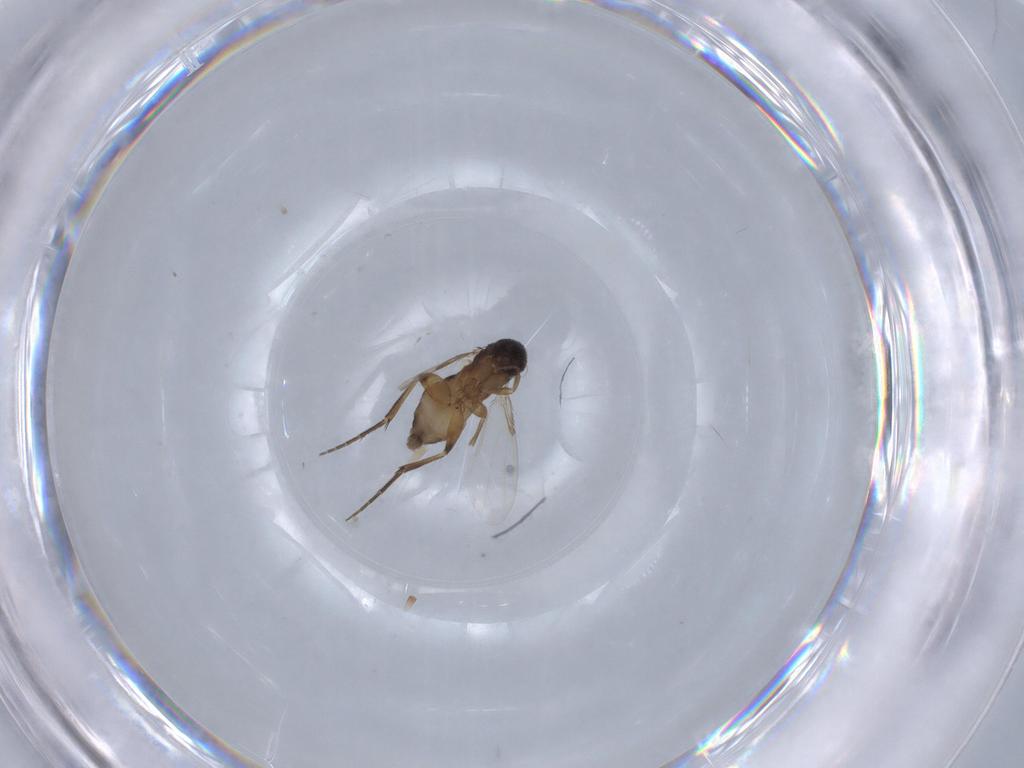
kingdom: Animalia
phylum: Arthropoda
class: Insecta
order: Diptera
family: Phoridae
